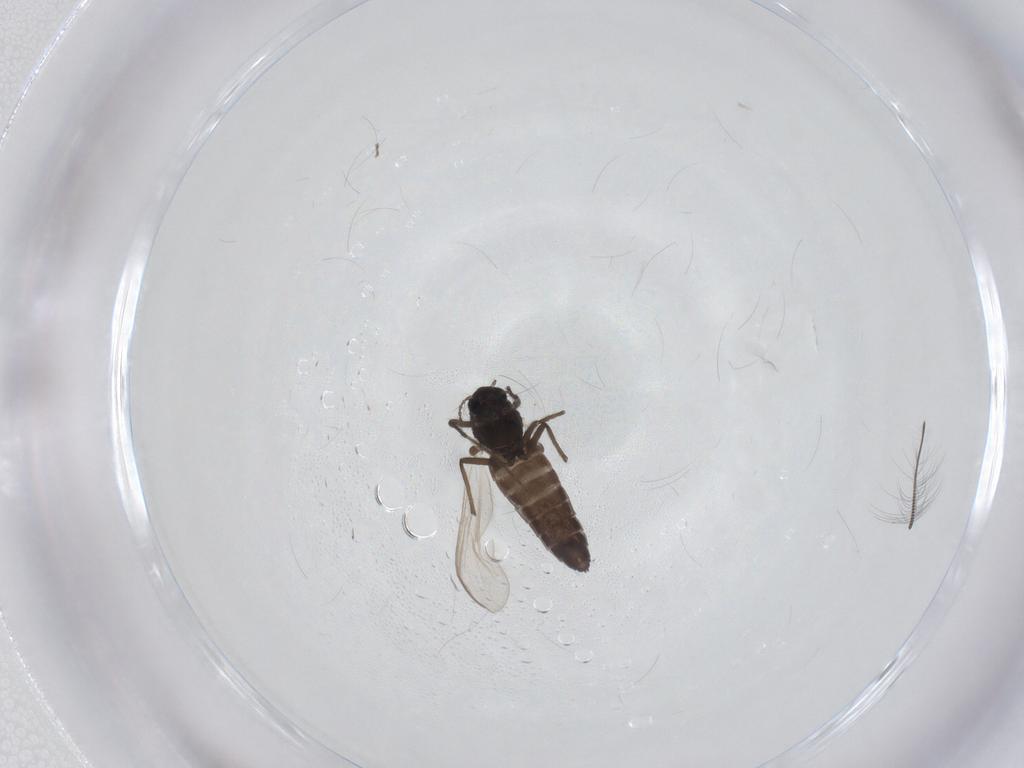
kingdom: Animalia
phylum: Arthropoda
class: Insecta
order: Diptera
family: Chironomidae
